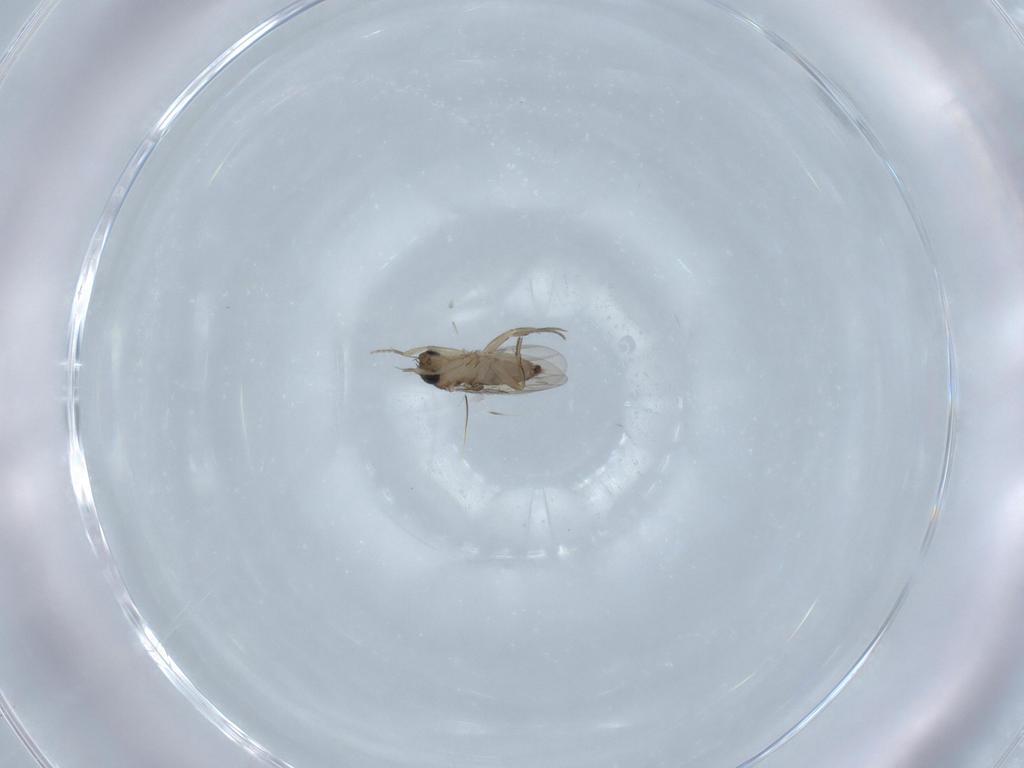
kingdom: Animalia
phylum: Arthropoda
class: Insecta
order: Diptera
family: Phoridae
